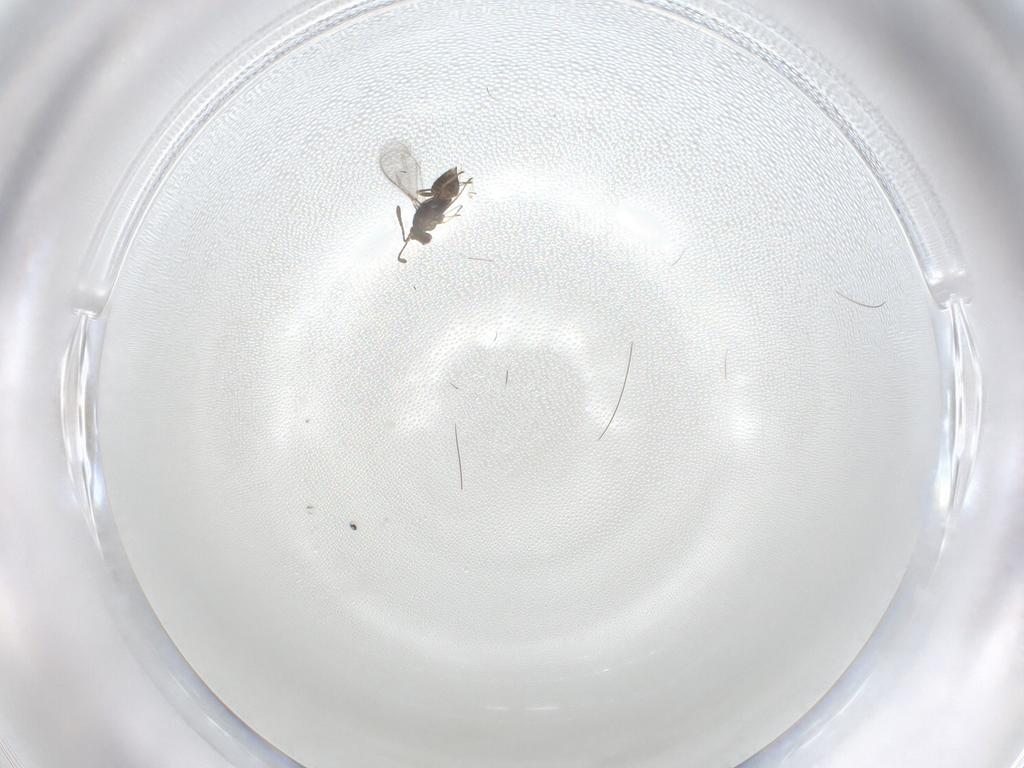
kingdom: Animalia
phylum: Arthropoda
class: Insecta
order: Hymenoptera
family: Mymaridae
